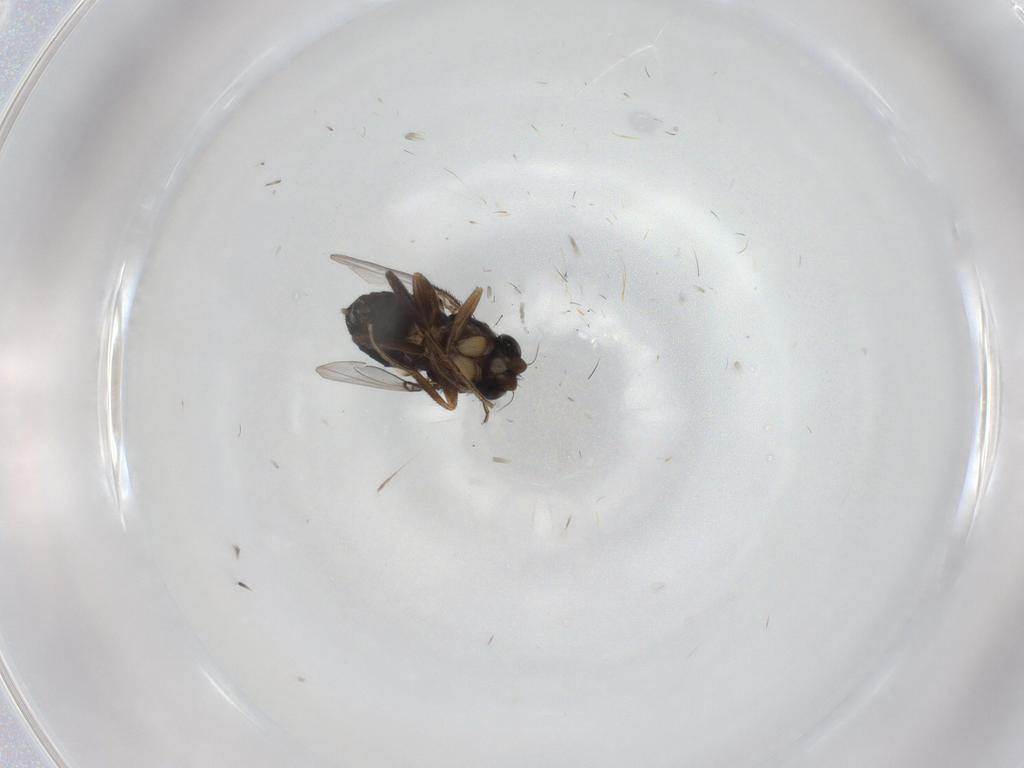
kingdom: Animalia
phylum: Arthropoda
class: Insecta
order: Diptera
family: Phoridae
